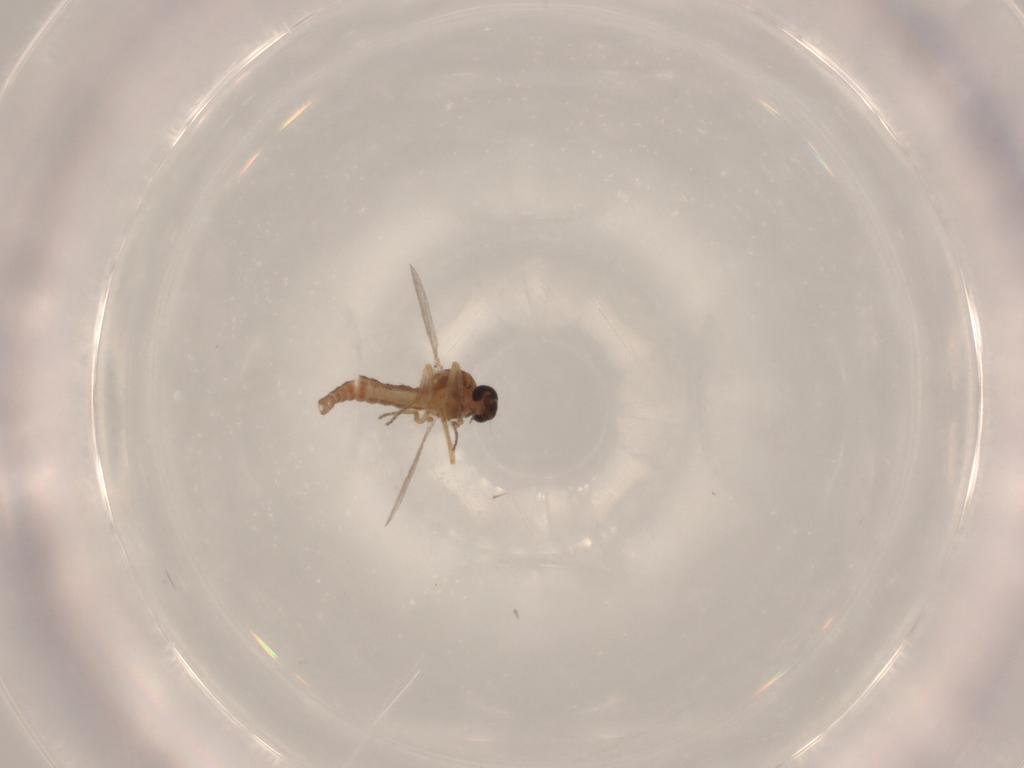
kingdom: Animalia
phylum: Arthropoda
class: Insecta
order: Diptera
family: Ceratopogonidae
